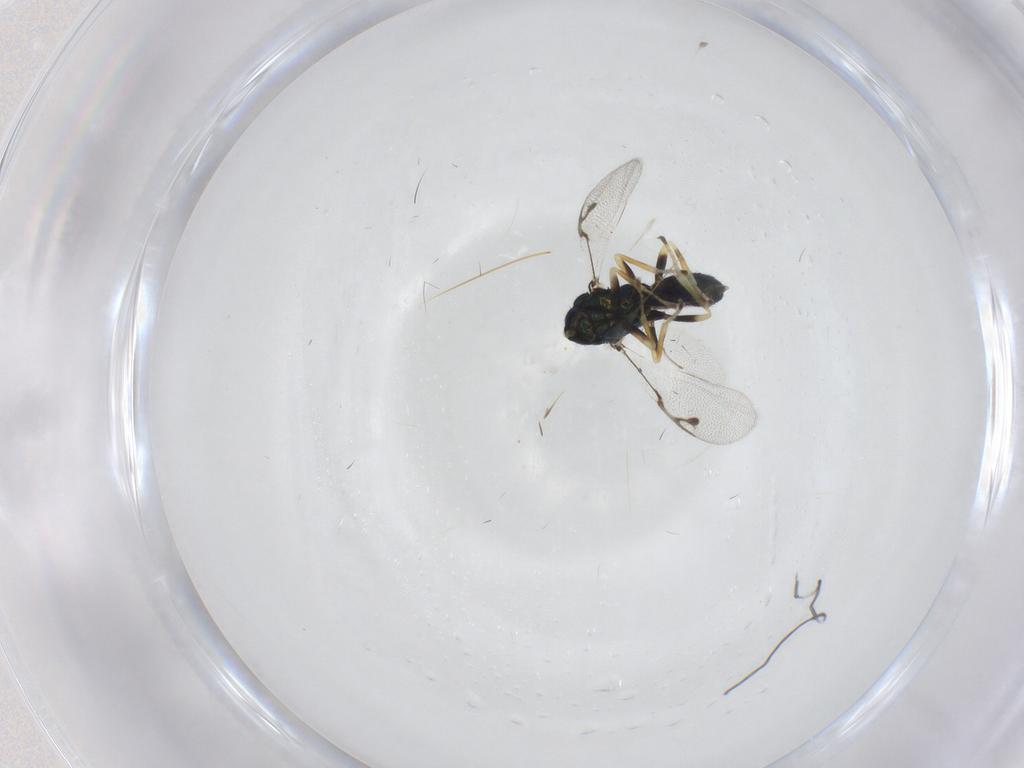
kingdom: Animalia
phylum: Arthropoda
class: Insecta
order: Hymenoptera
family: Pirenidae
